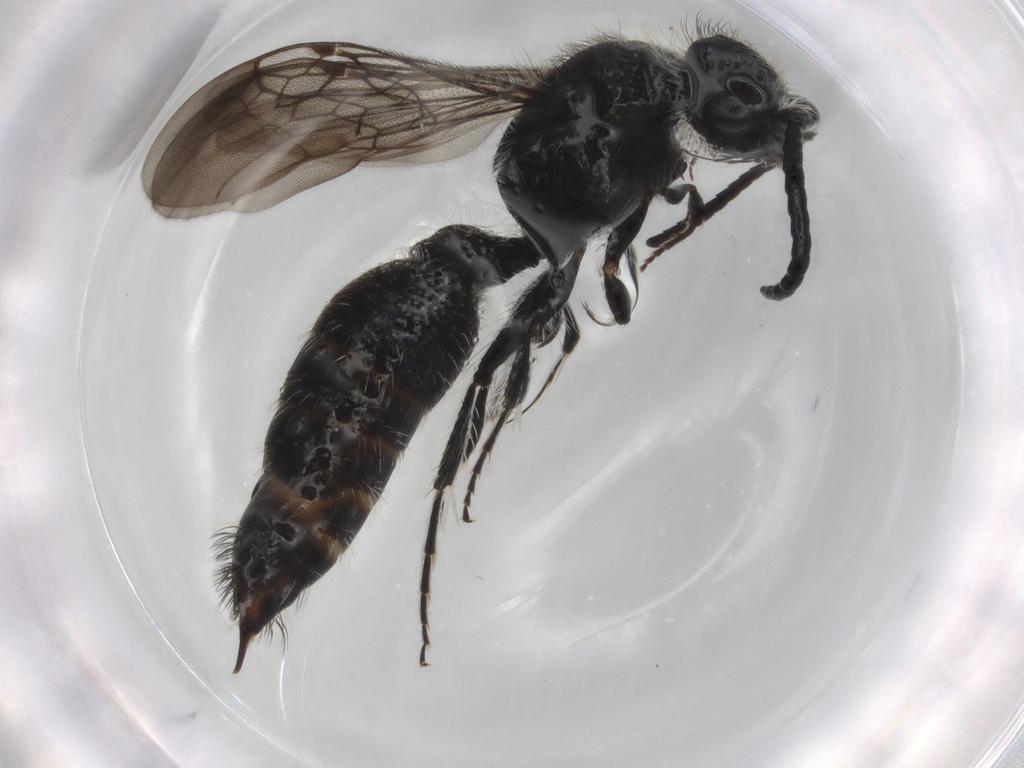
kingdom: Animalia
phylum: Arthropoda
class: Insecta
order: Hymenoptera
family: Formicidae
